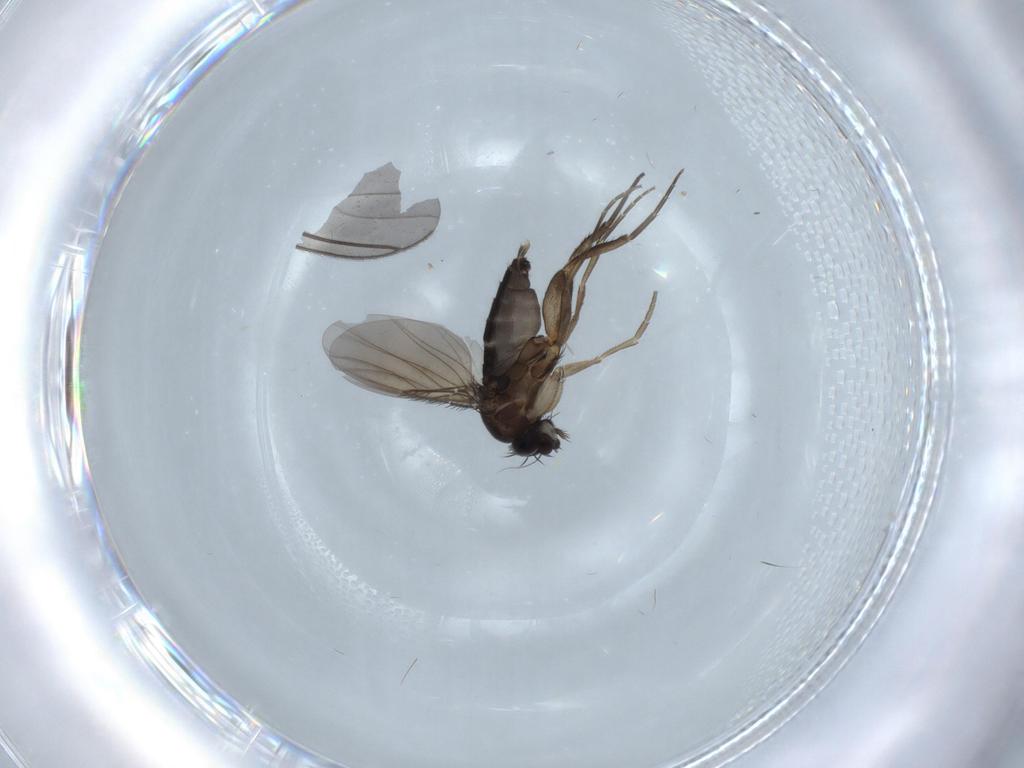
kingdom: Animalia
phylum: Arthropoda
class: Insecta
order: Diptera
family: Phoridae
